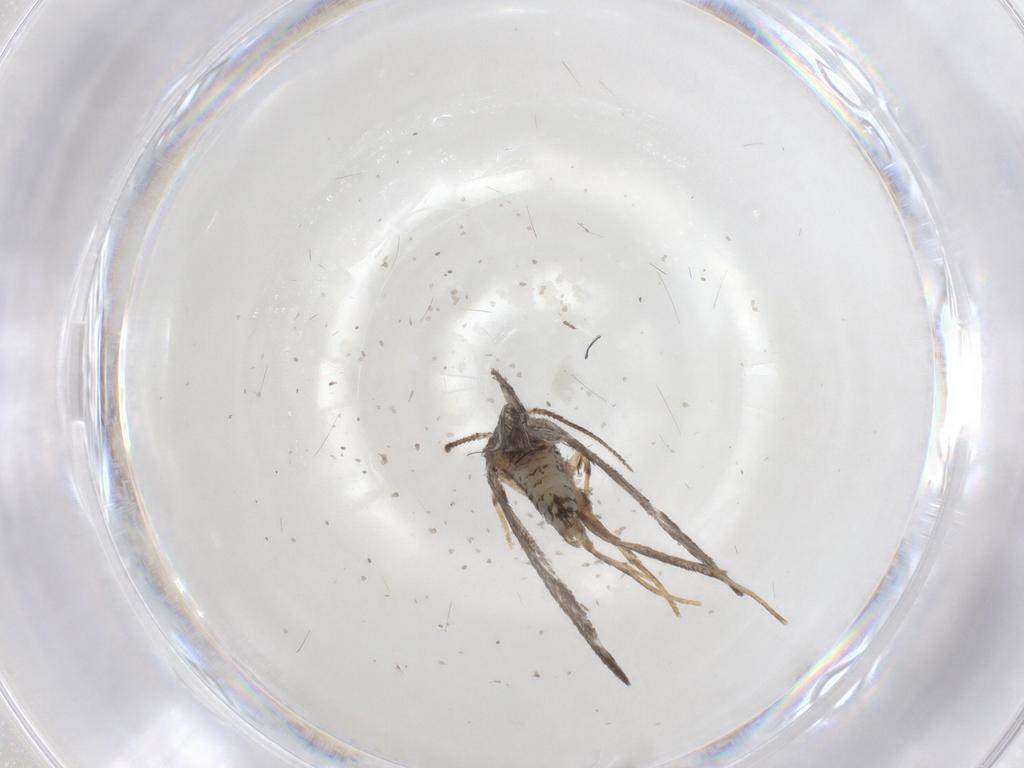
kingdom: Animalia
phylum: Arthropoda
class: Insecta
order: Lepidoptera
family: Psychidae
